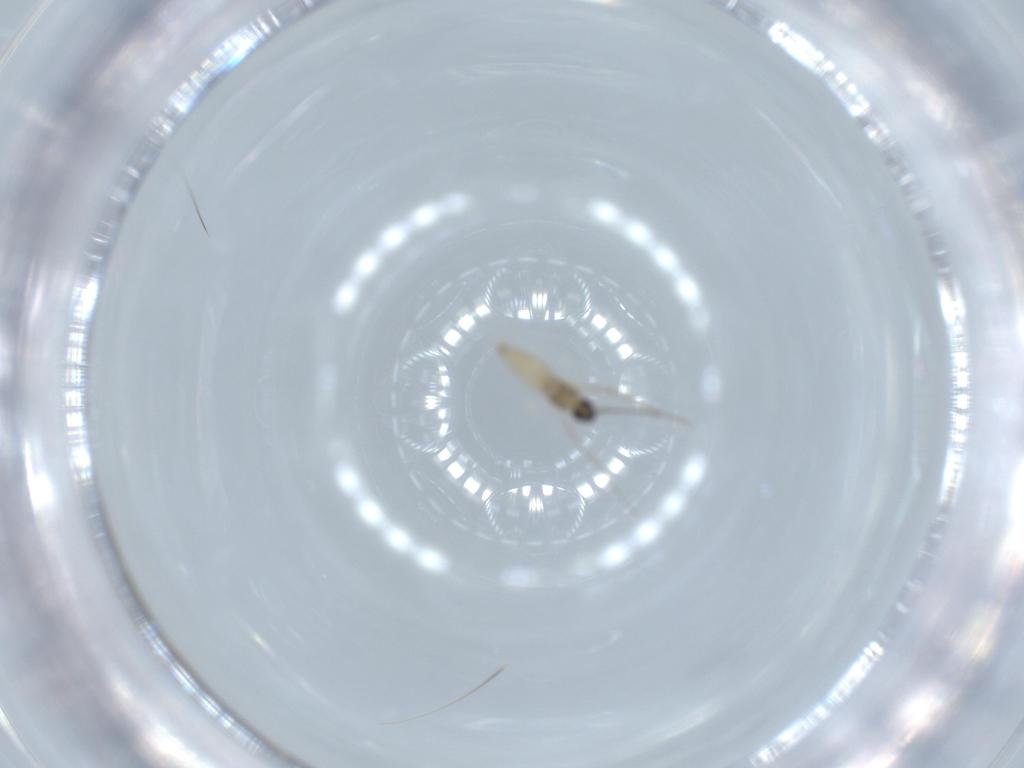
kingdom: Animalia
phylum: Arthropoda
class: Insecta
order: Diptera
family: Cecidomyiidae
